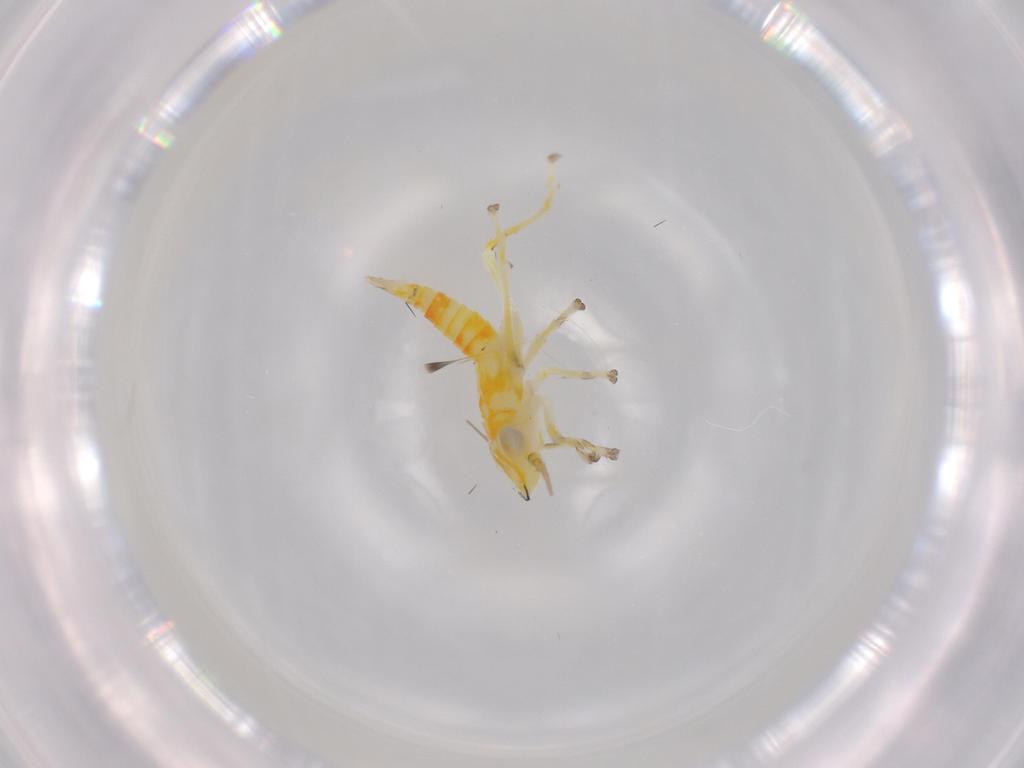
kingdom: Animalia
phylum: Arthropoda
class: Insecta
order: Hemiptera
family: Cicadellidae
